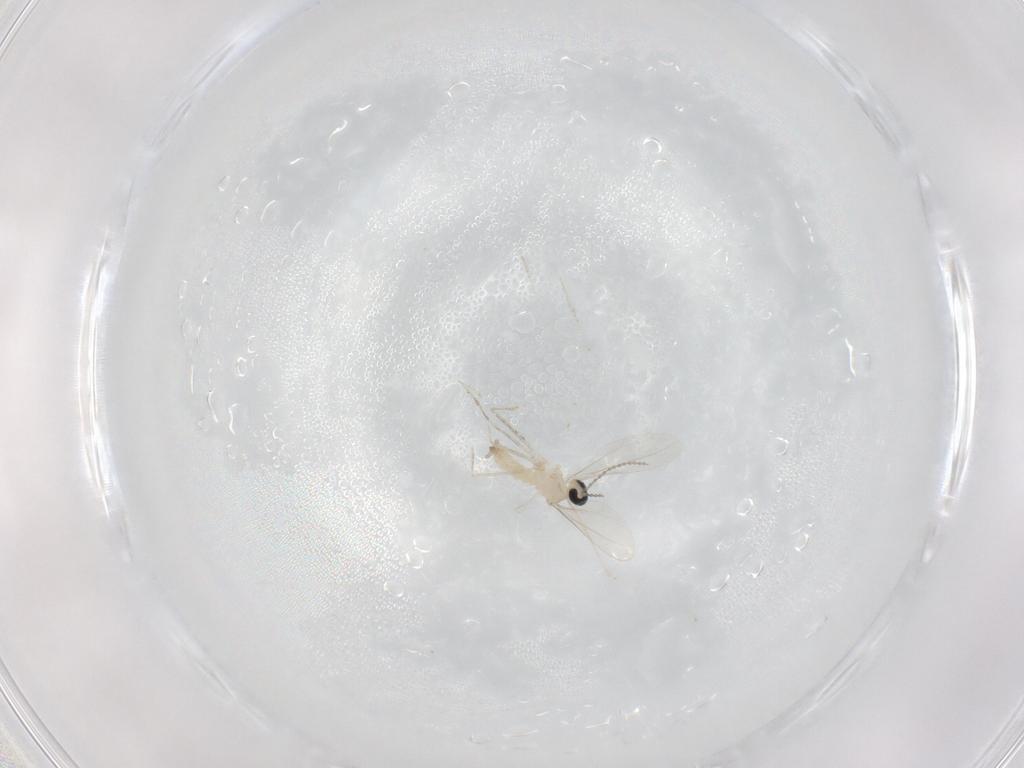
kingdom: Animalia
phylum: Arthropoda
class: Insecta
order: Diptera
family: Cecidomyiidae
